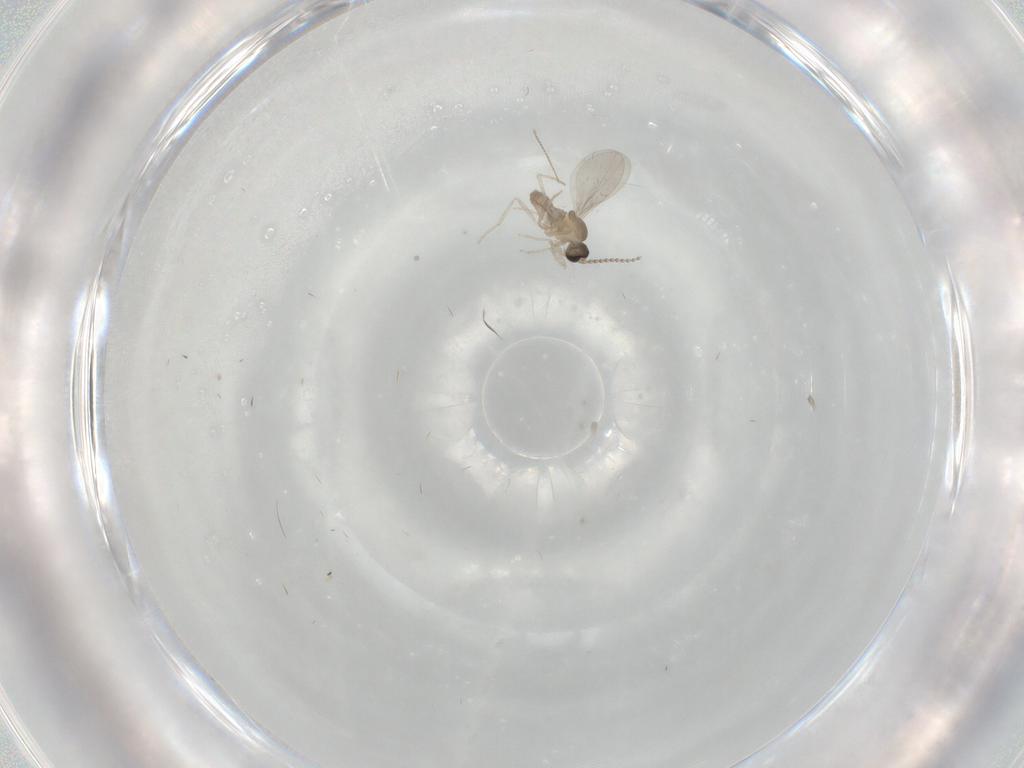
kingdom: Animalia
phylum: Arthropoda
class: Insecta
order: Diptera
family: Cecidomyiidae
